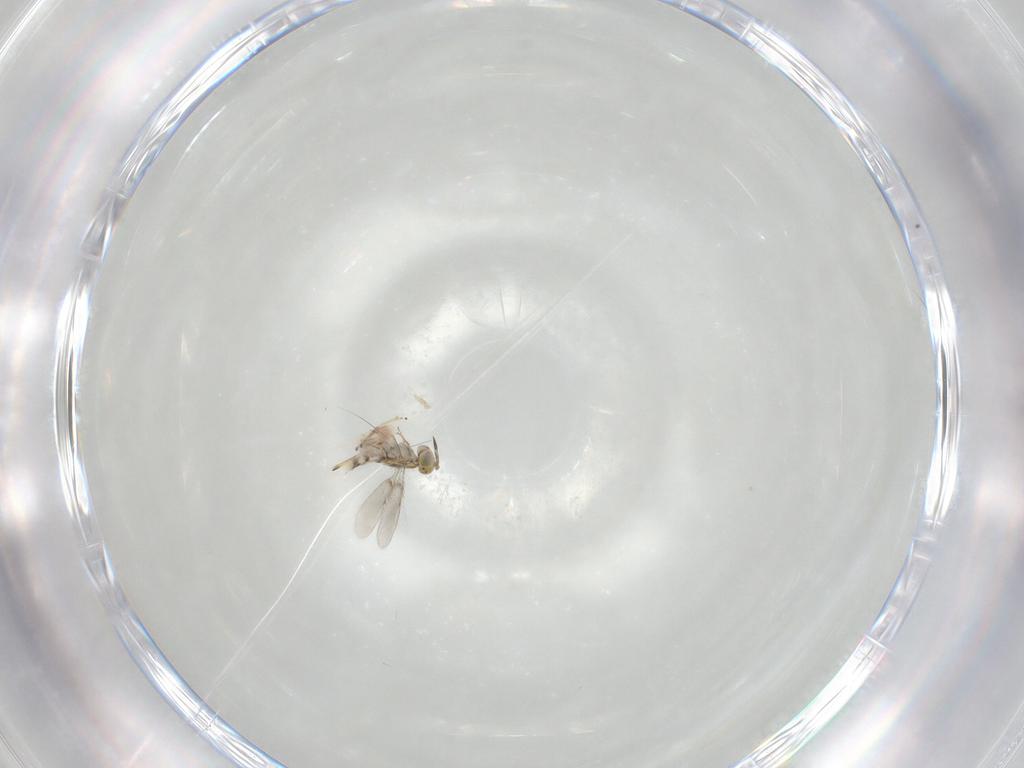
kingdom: Animalia
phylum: Arthropoda
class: Insecta
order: Hymenoptera
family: Aphelinidae
